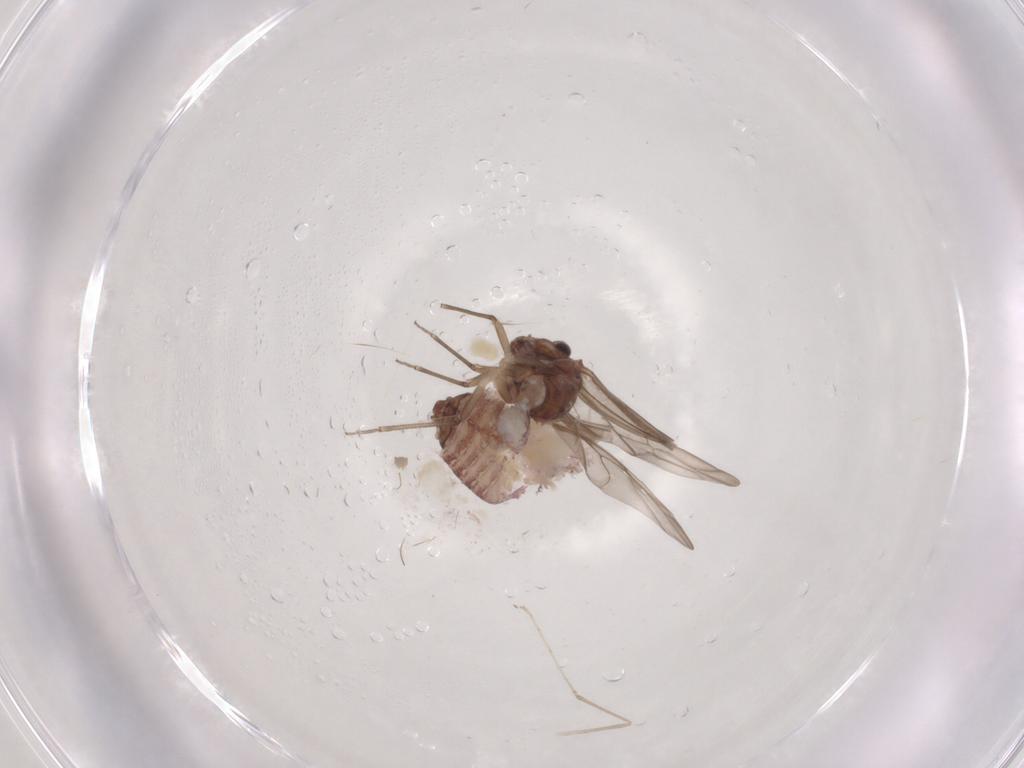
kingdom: Animalia
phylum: Arthropoda
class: Insecta
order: Psocodea
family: Peripsocidae
